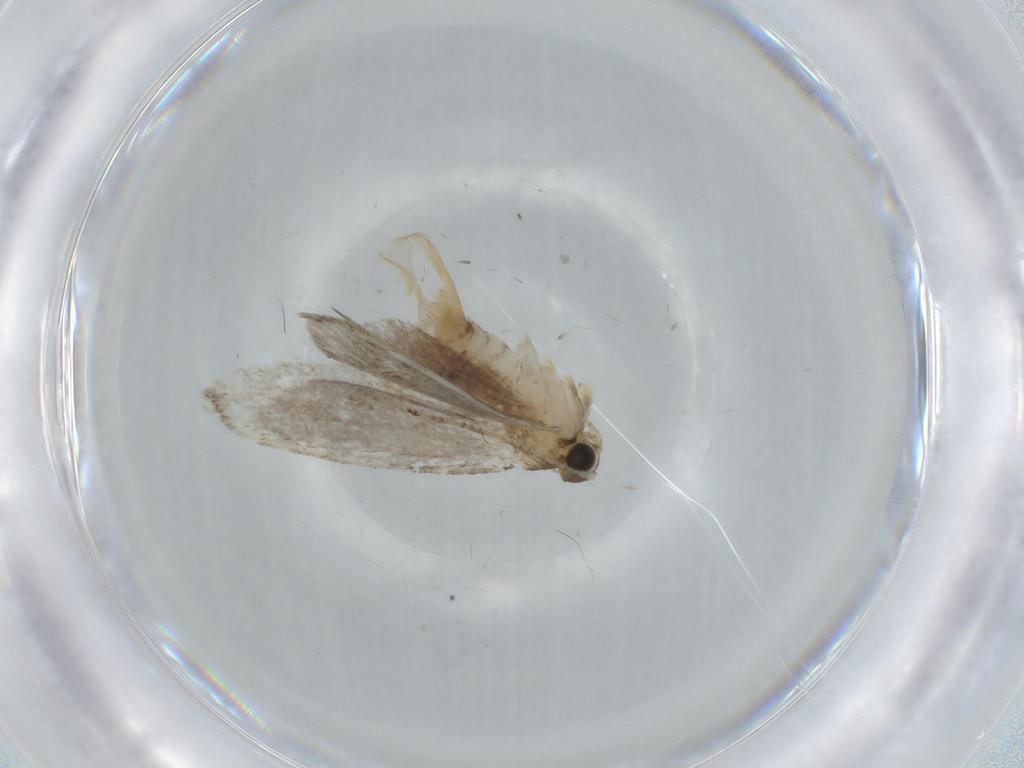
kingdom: Animalia
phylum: Arthropoda
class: Insecta
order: Lepidoptera
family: Tineidae
